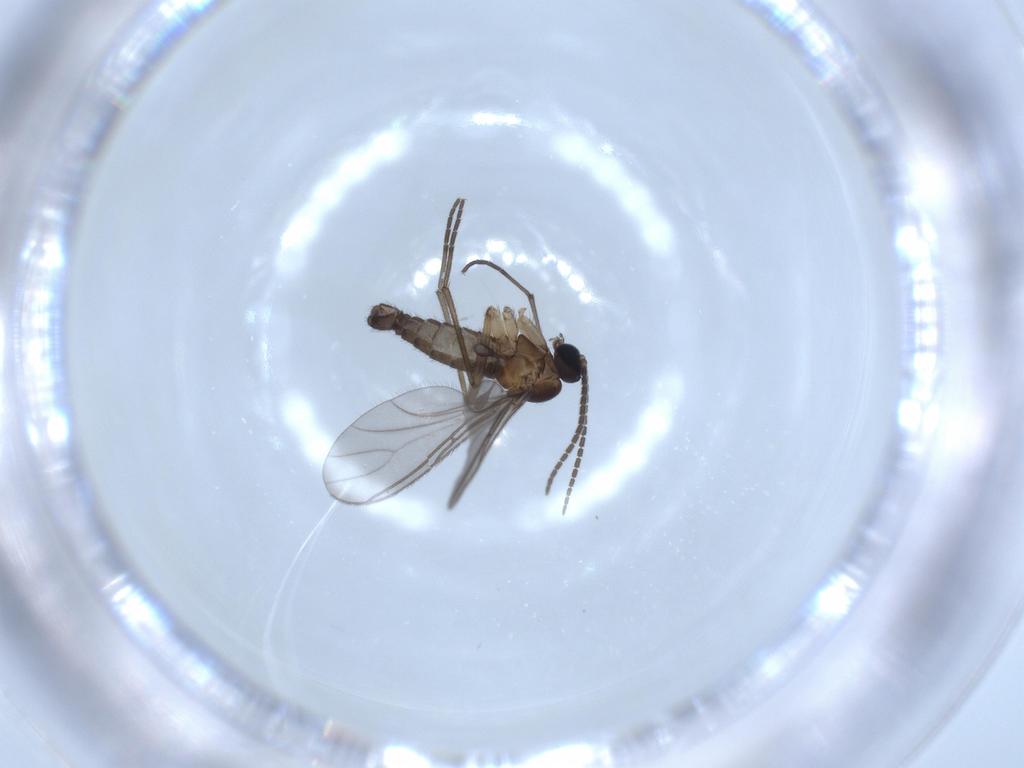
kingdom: Animalia
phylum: Arthropoda
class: Insecta
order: Diptera
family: Sciaridae
